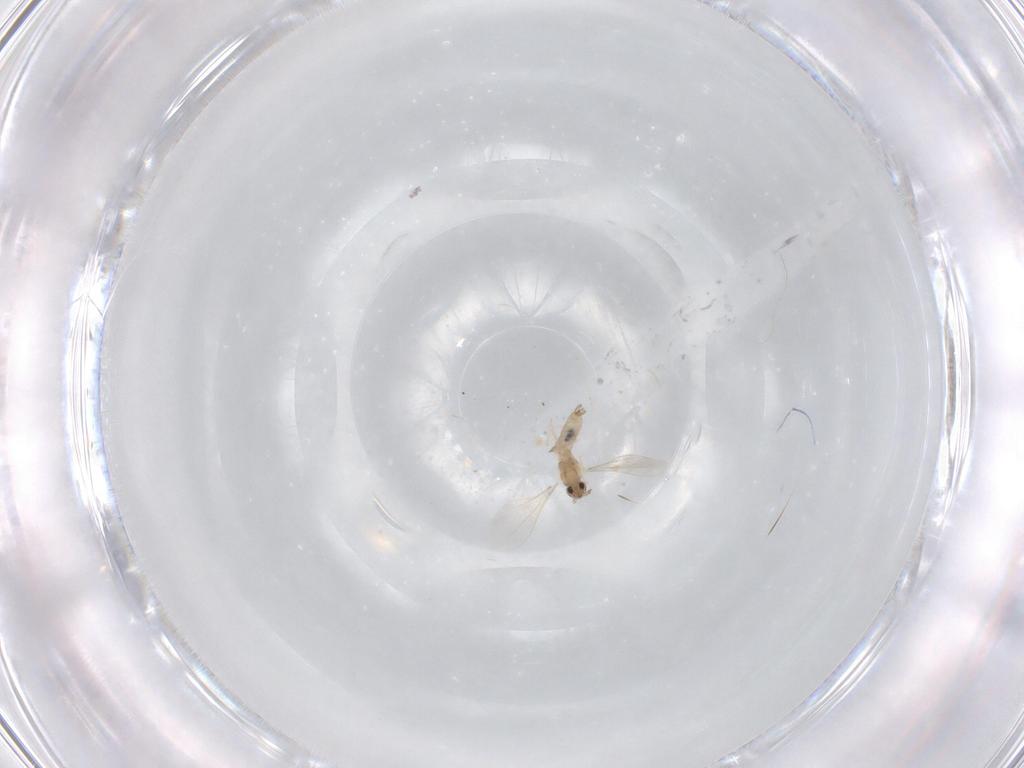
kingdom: Animalia
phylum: Arthropoda
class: Insecta
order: Diptera
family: Cecidomyiidae
